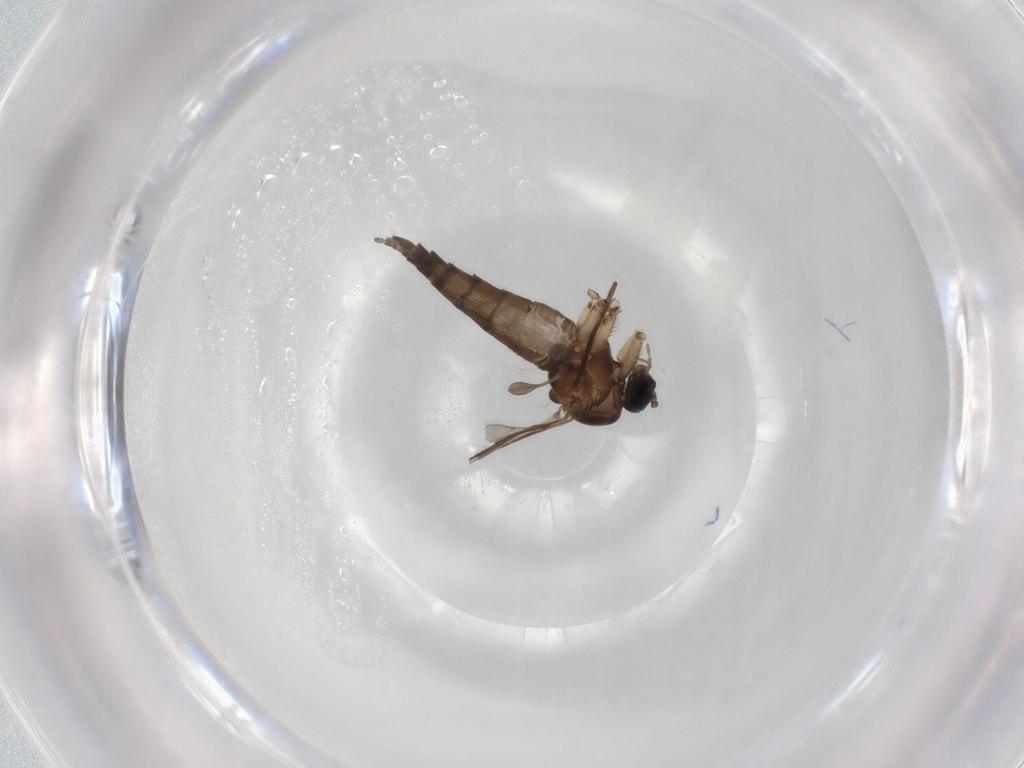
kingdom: Animalia
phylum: Arthropoda
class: Insecta
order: Diptera
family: Sciaridae
